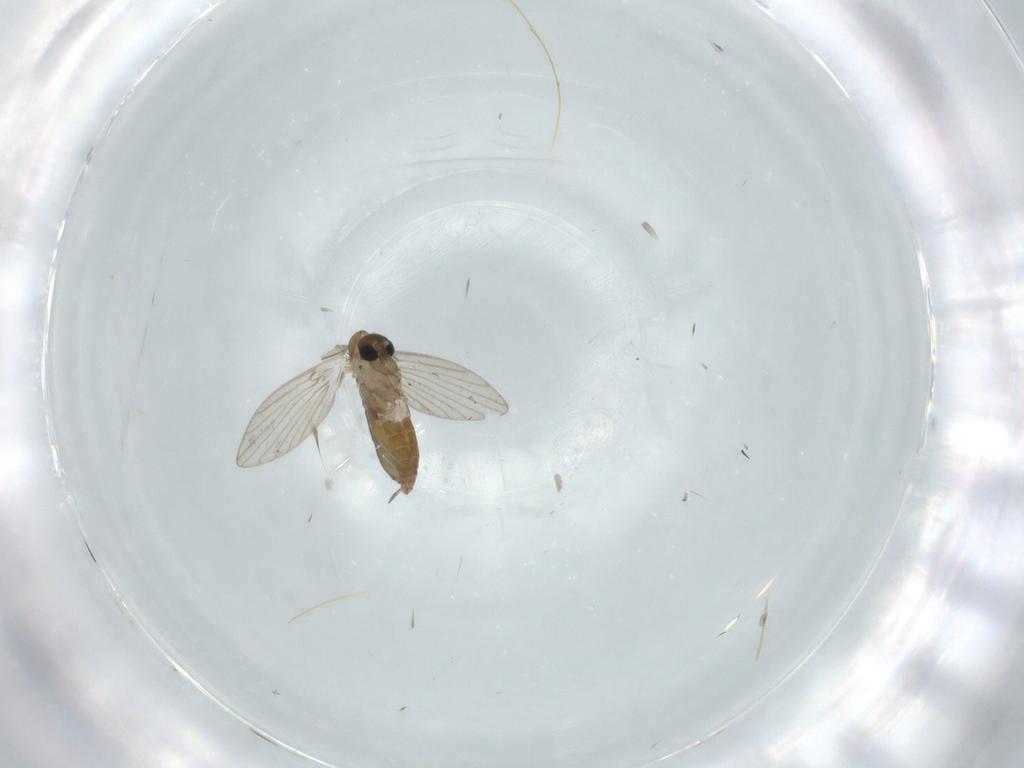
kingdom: Animalia
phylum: Arthropoda
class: Insecta
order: Diptera
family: Psychodidae
